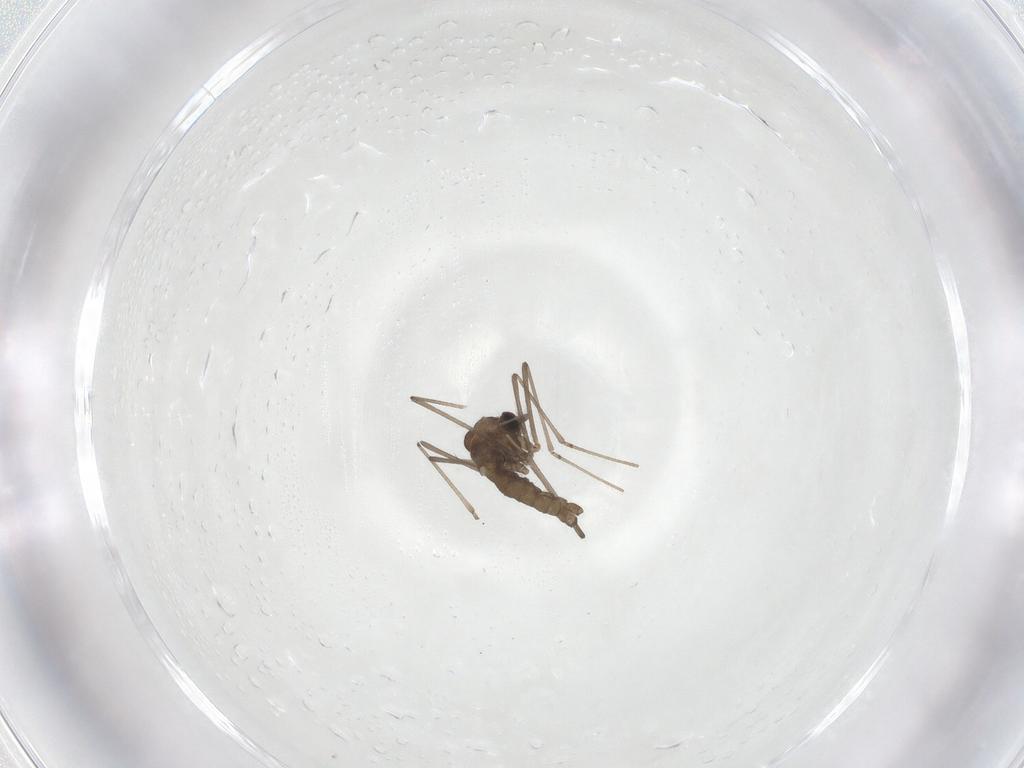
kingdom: Animalia
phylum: Arthropoda
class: Insecta
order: Diptera
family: Cecidomyiidae
